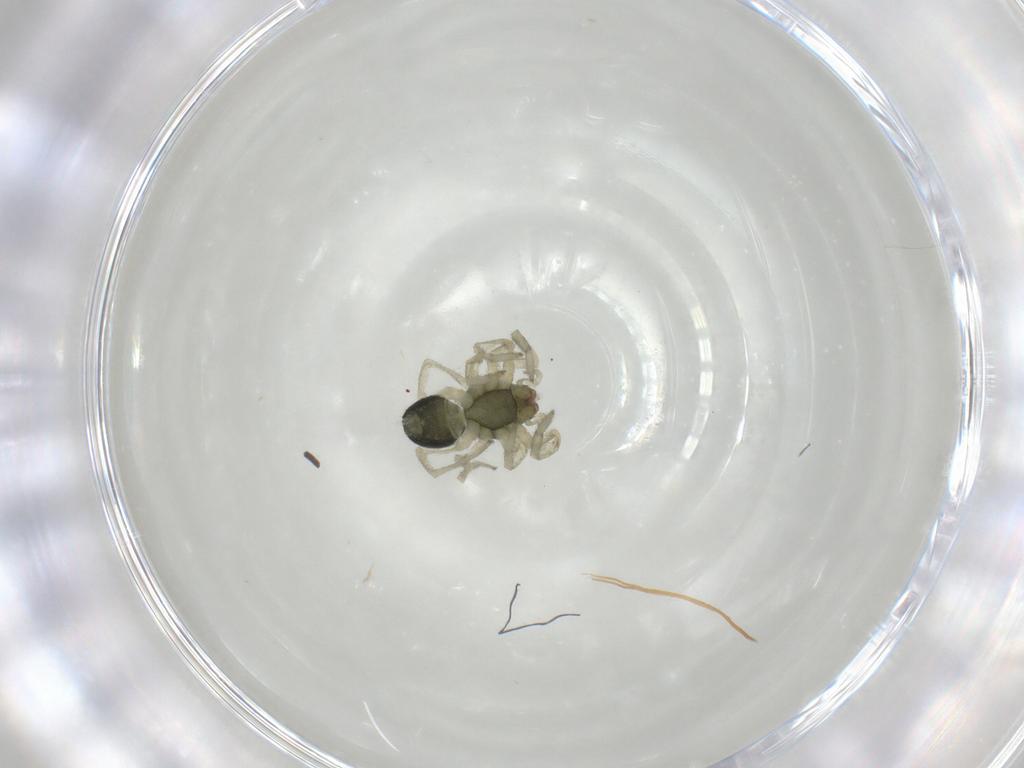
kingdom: Animalia
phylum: Arthropoda
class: Arachnida
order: Araneae
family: Trachelidae
